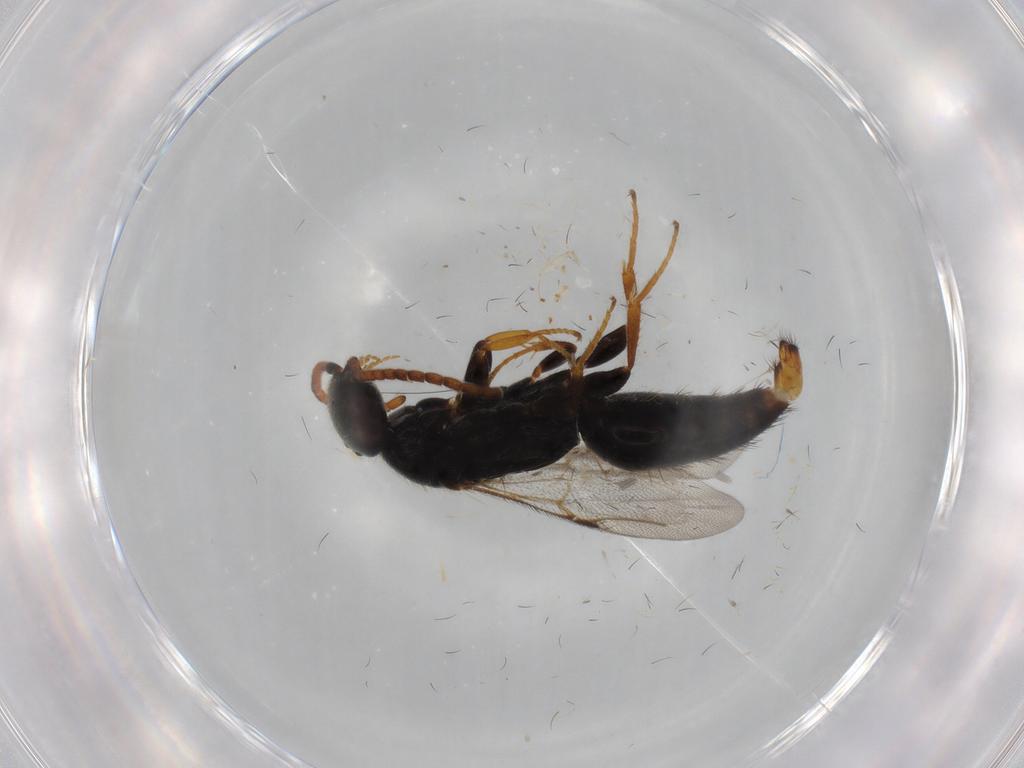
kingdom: Animalia
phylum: Arthropoda
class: Insecta
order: Hymenoptera
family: Bethylidae
